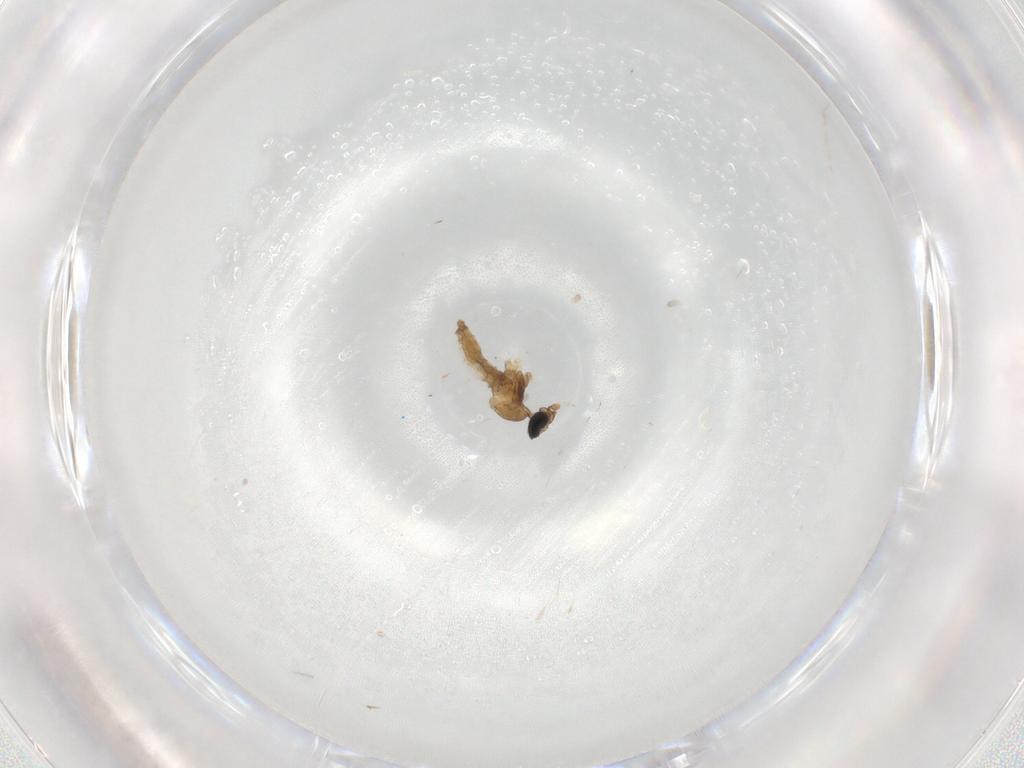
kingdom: Animalia
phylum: Arthropoda
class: Insecta
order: Diptera
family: Cecidomyiidae
